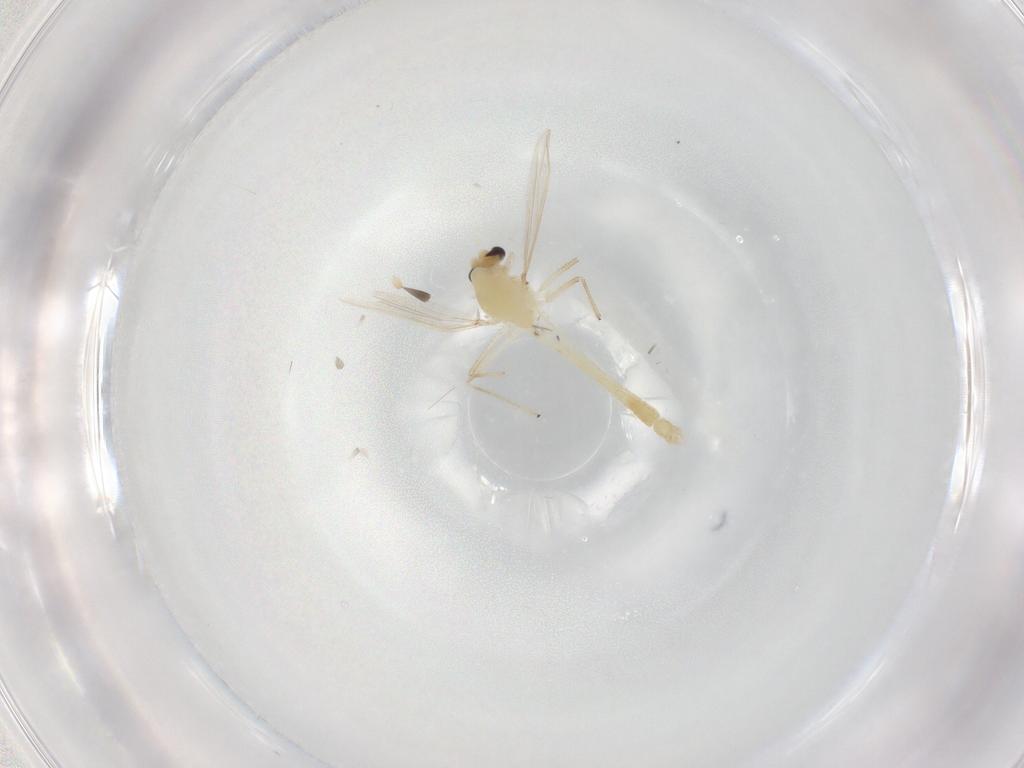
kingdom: Animalia
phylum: Arthropoda
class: Insecta
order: Diptera
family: Chironomidae
